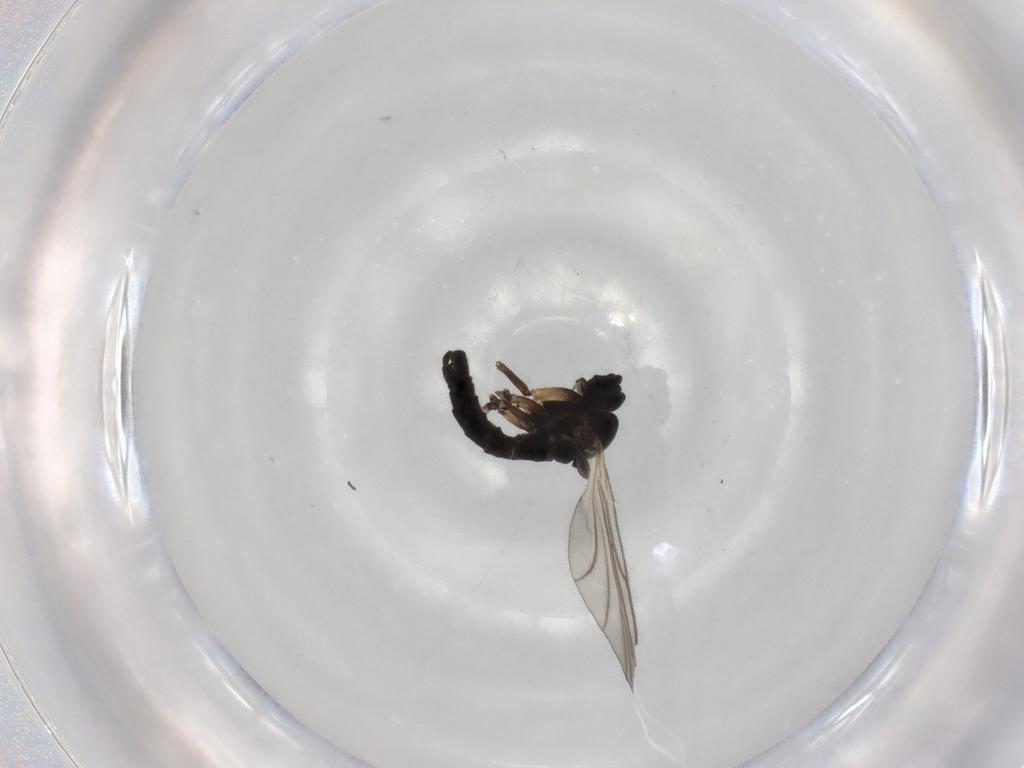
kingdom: Animalia
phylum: Arthropoda
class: Insecta
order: Diptera
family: Sciaridae
